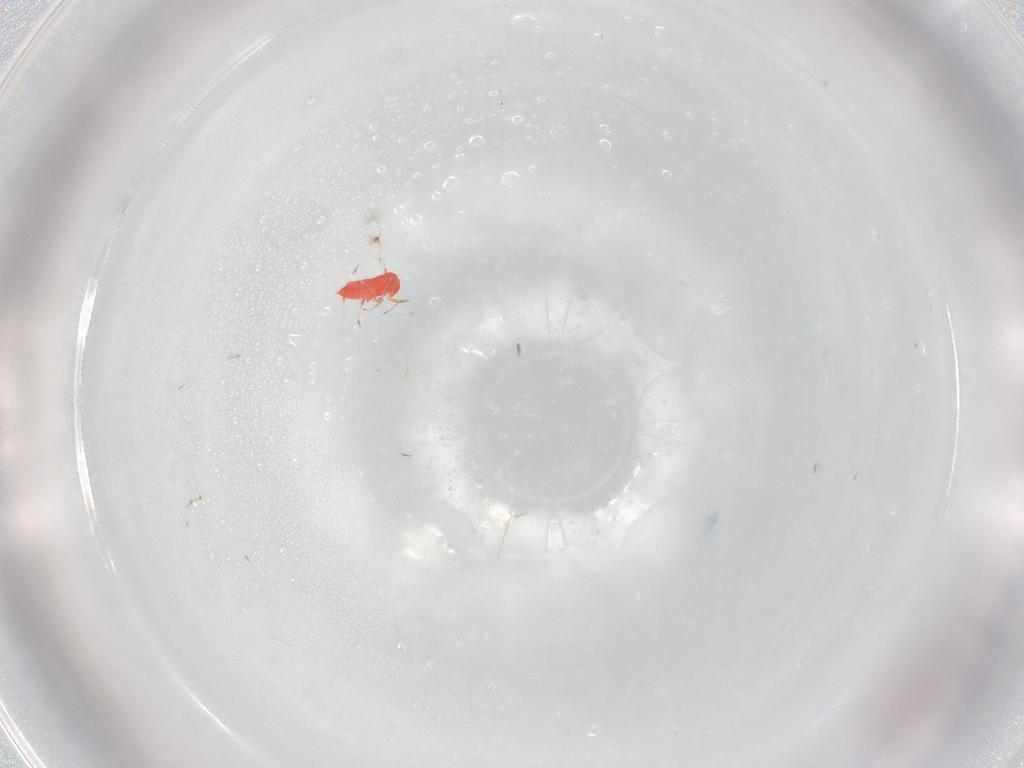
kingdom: Animalia
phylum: Arthropoda
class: Insecta
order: Hymenoptera
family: Trichogrammatidae
